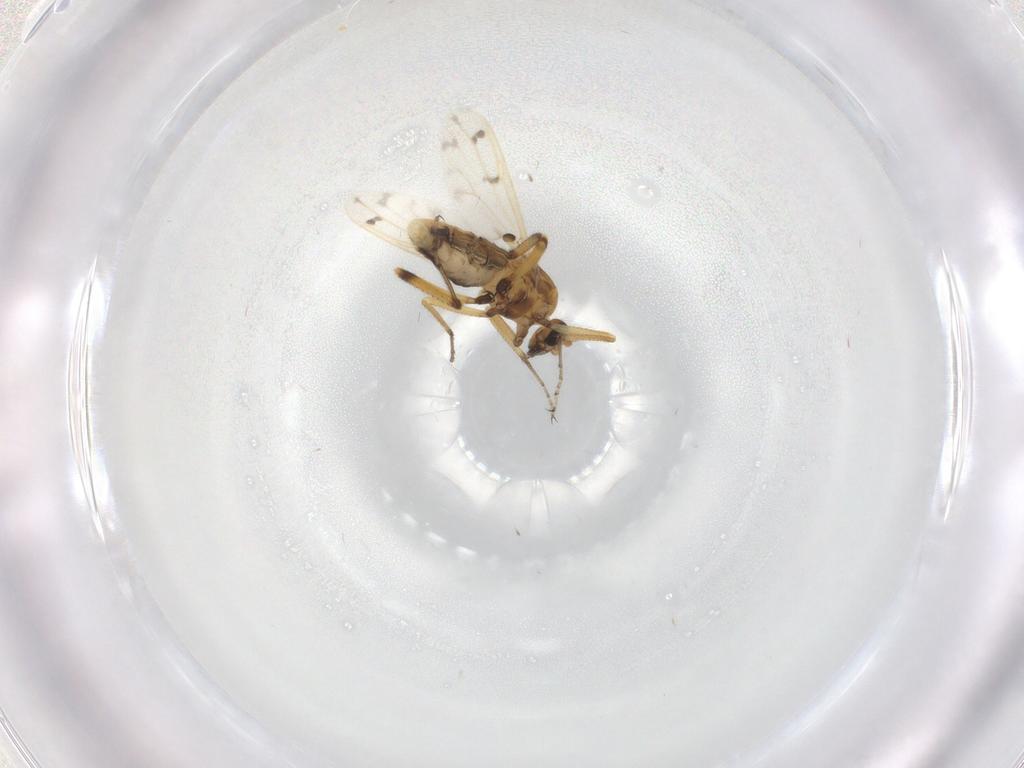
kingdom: Animalia
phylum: Arthropoda
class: Insecta
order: Diptera
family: Ceratopogonidae
